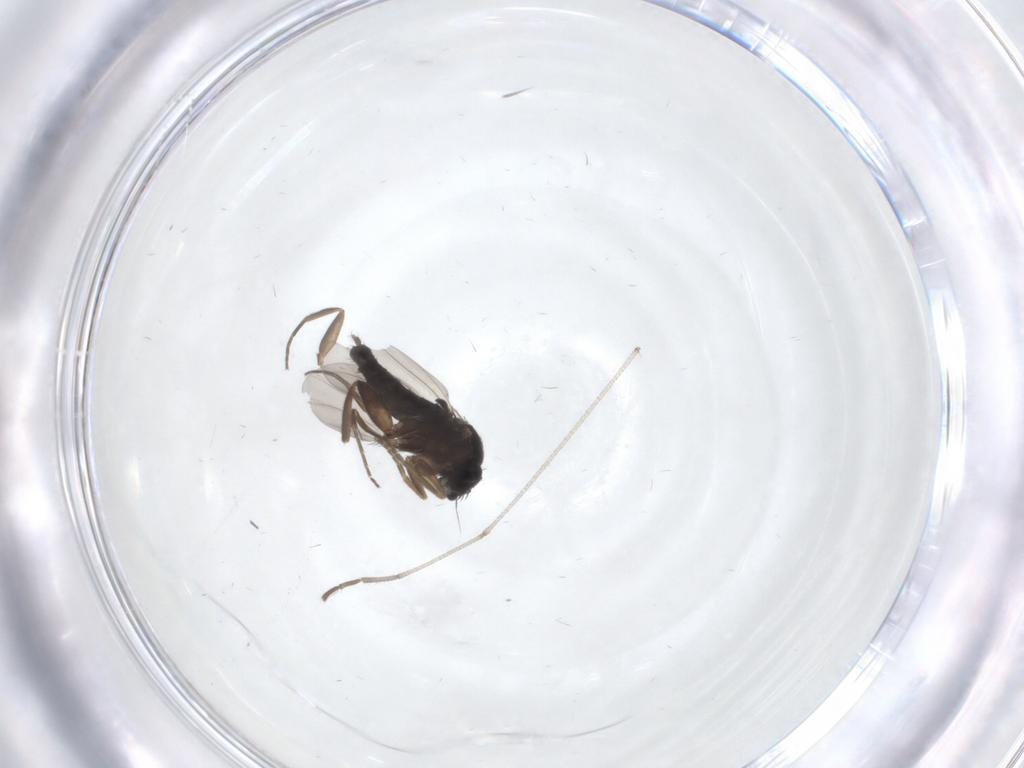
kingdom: Animalia
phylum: Arthropoda
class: Insecta
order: Diptera
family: Phoridae
